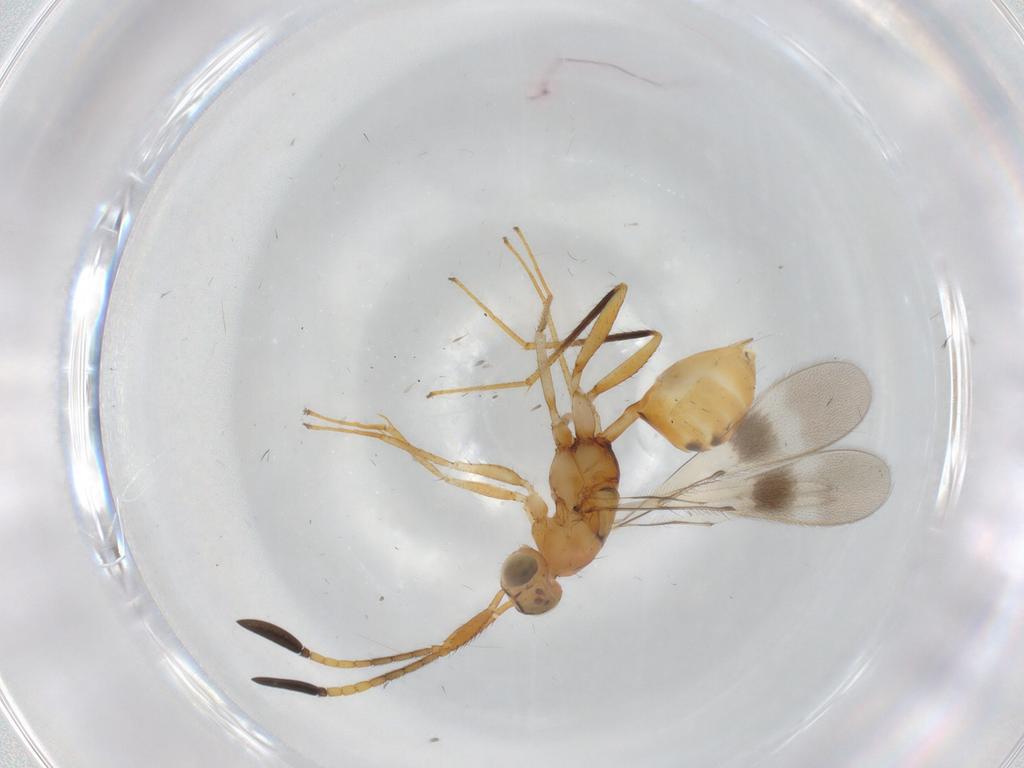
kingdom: Animalia
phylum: Arthropoda
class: Insecta
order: Hymenoptera
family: Mymaridae
